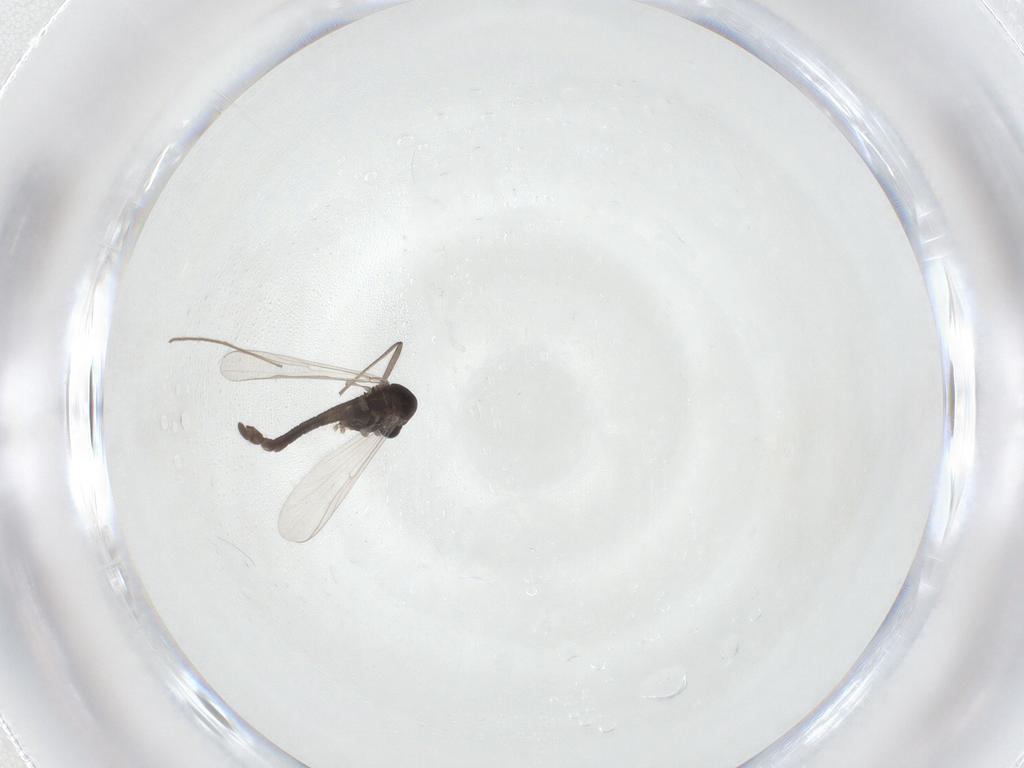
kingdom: Animalia
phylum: Arthropoda
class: Insecta
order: Diptera
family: Chironomidae
